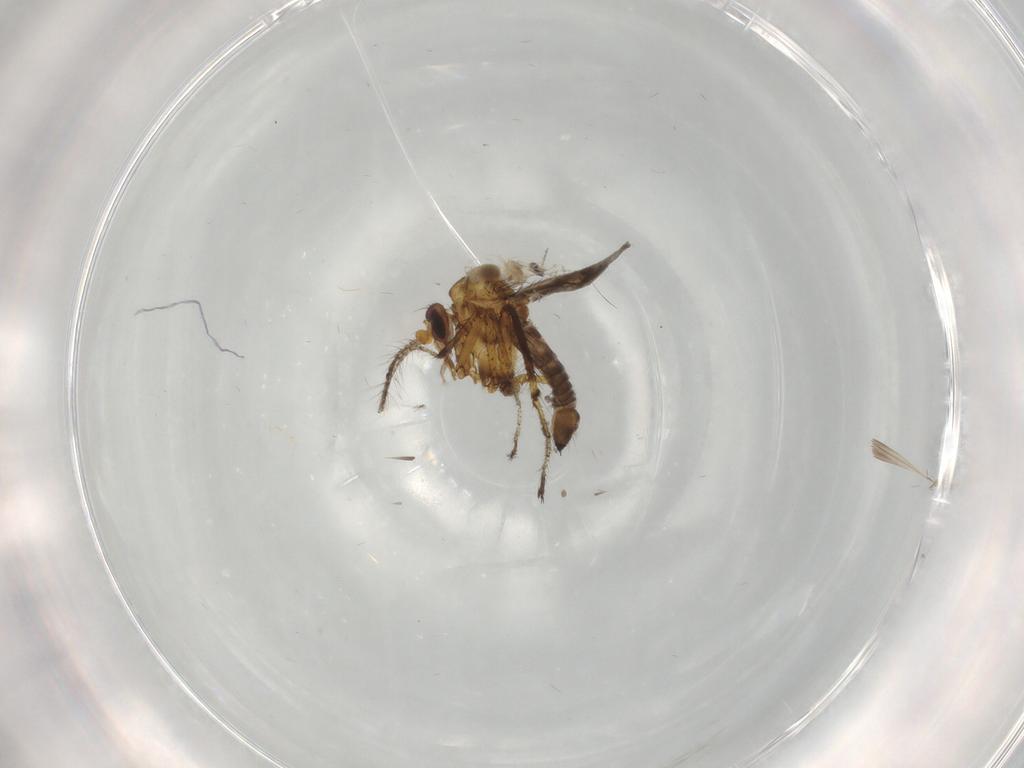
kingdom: Animalia
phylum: Arthropoda
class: Insecta
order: Diptera
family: Cecidomyiidae
